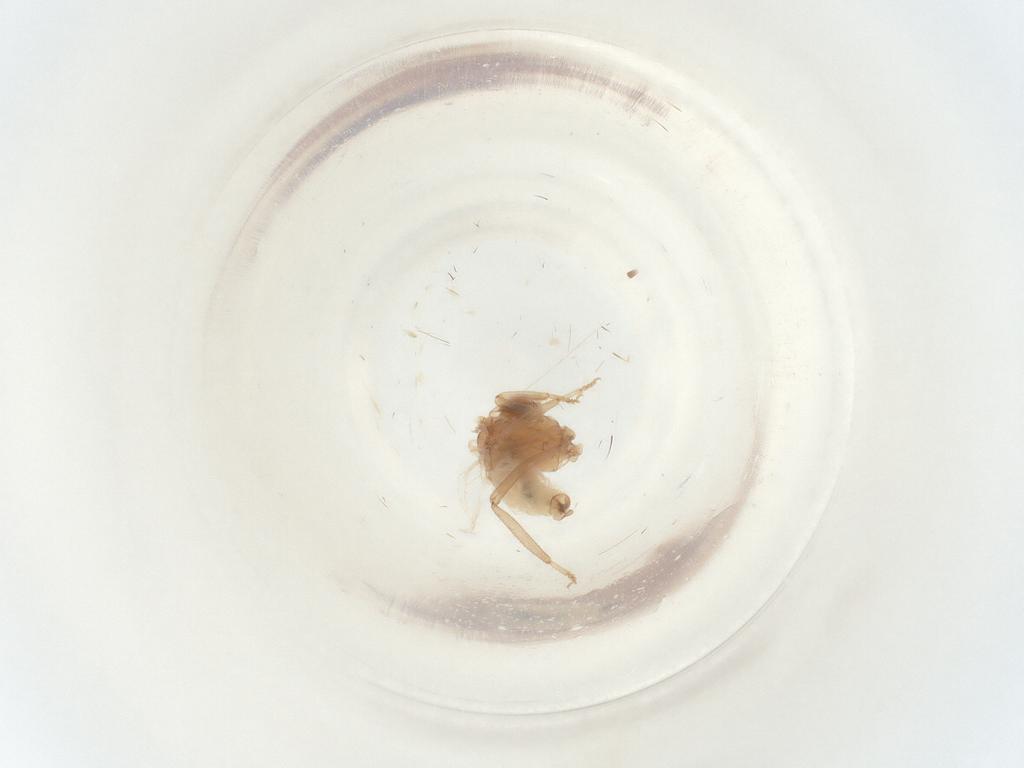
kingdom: Animalia
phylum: Arthropoda
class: Insecta
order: Neuroptera
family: Coniopterygidae
